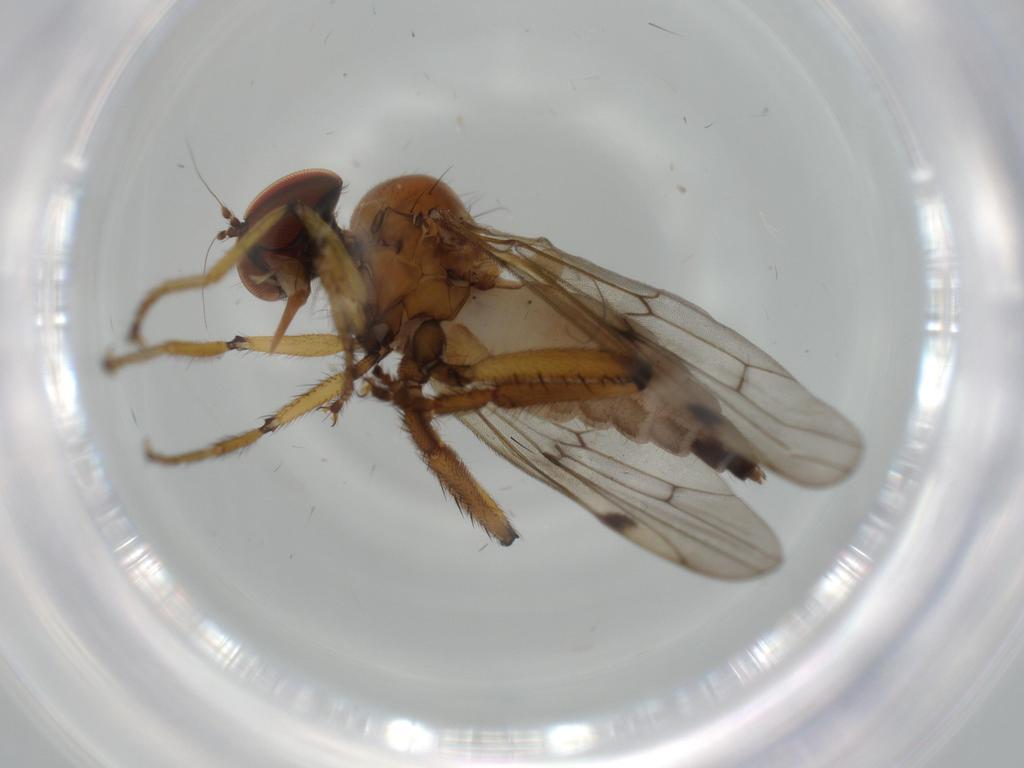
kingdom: Animalia
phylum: Arthropoda
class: Insecta
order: Diptera
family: Hybotidae
